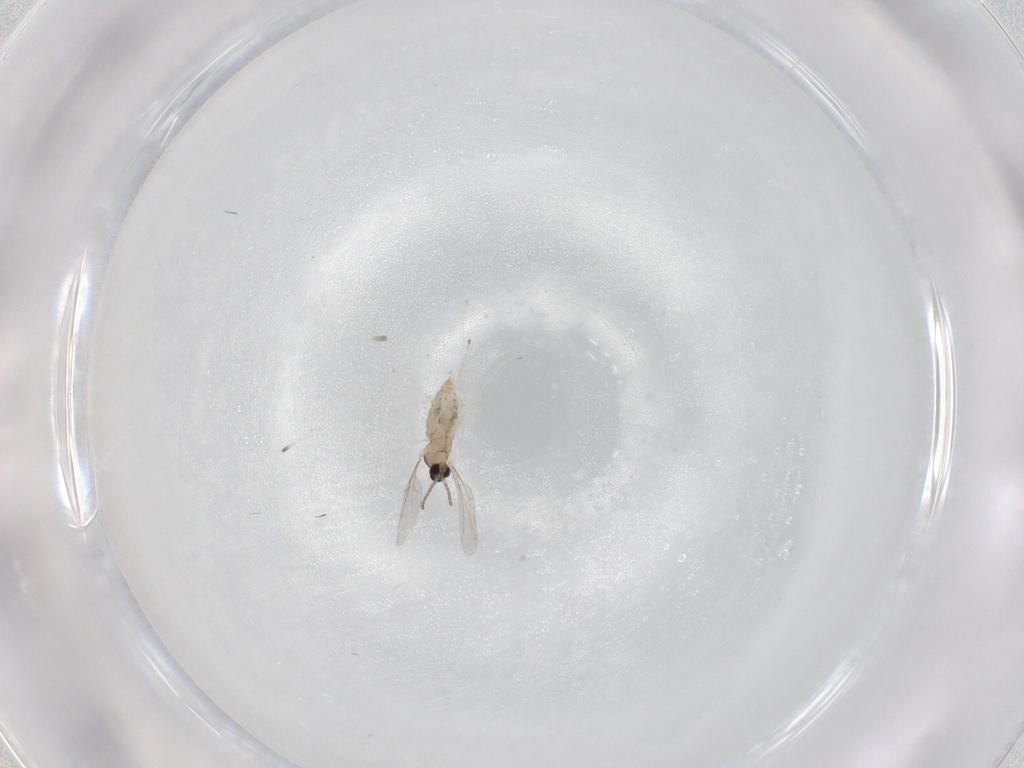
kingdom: Animalia
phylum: Arthropoda
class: Insecta
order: Diptera
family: Cecidomyiidae
